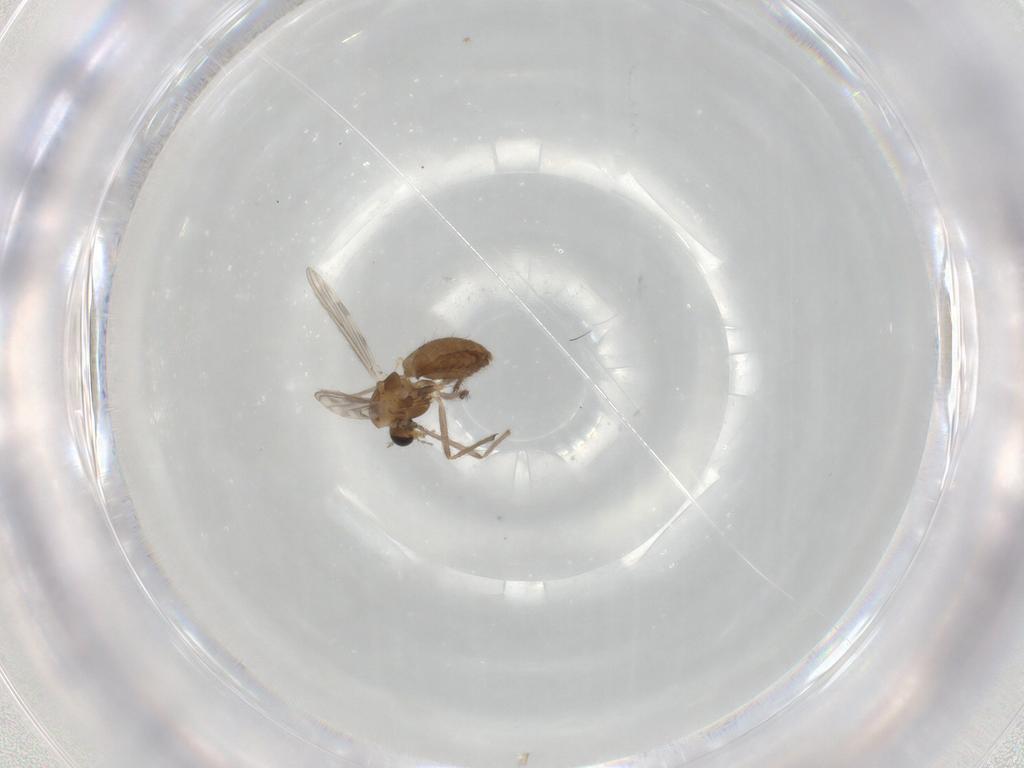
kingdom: Animalia
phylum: Arthropoda
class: Insecta
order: Diptera
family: Chironomidae
